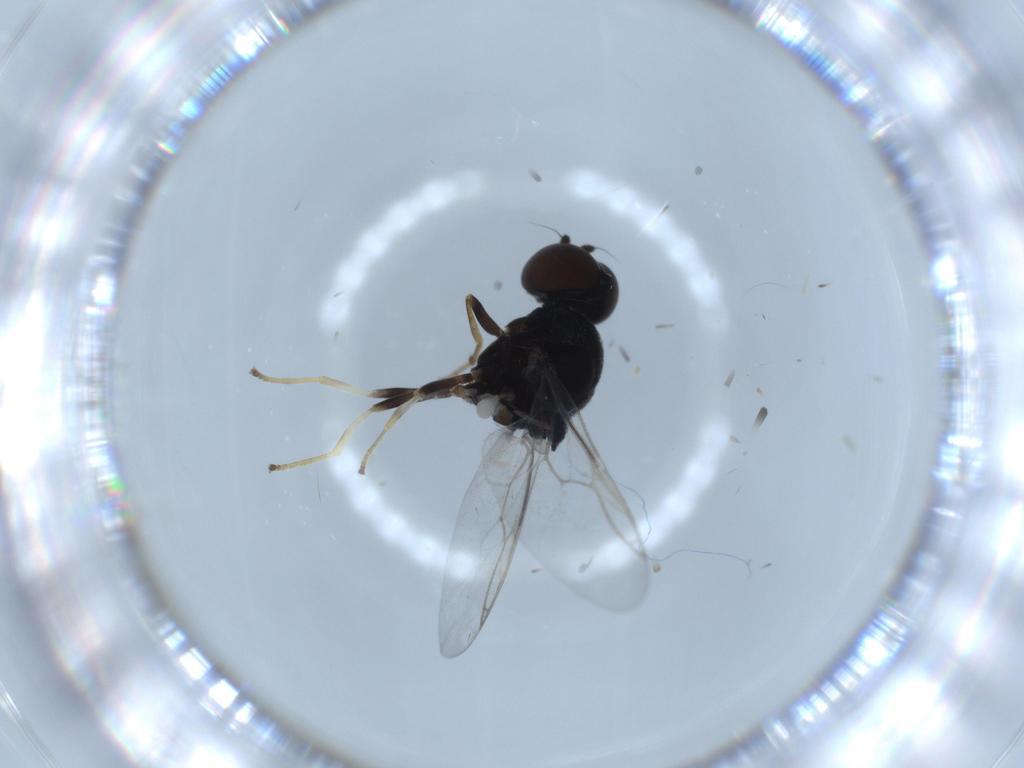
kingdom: Animalia
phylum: Arthropoda
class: Insecta
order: Diptera
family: Stratiomyidae
